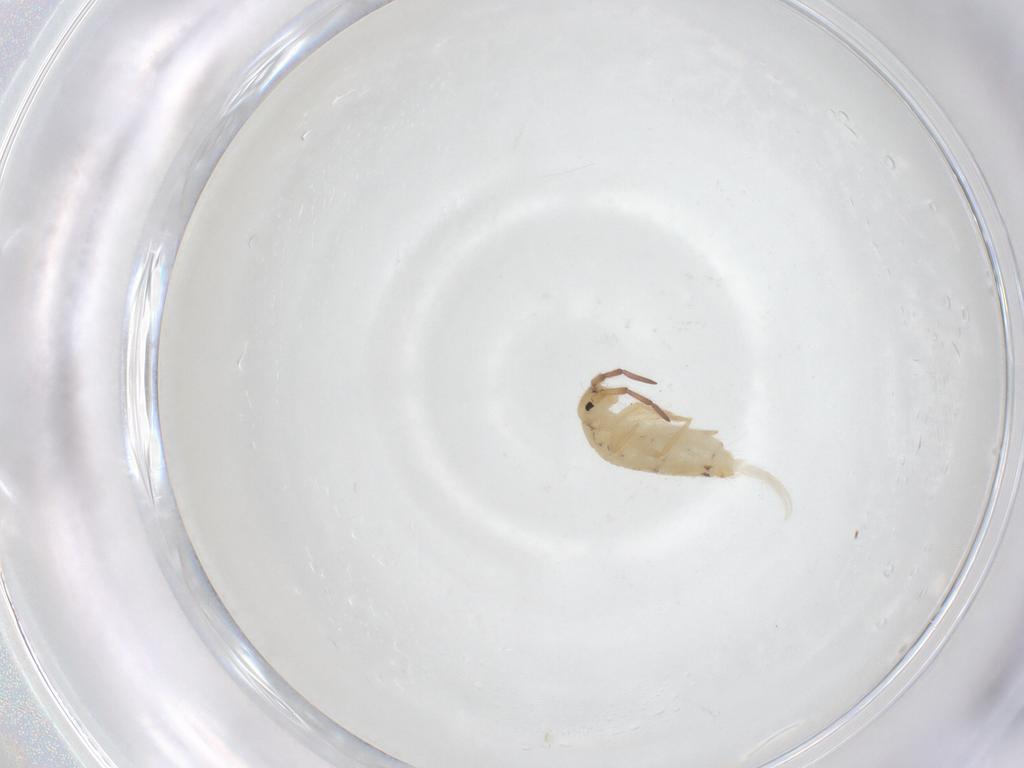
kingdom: Animalia
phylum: Arthropoda
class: Collembola
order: Entomobryomorpha
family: Entomobryidae
